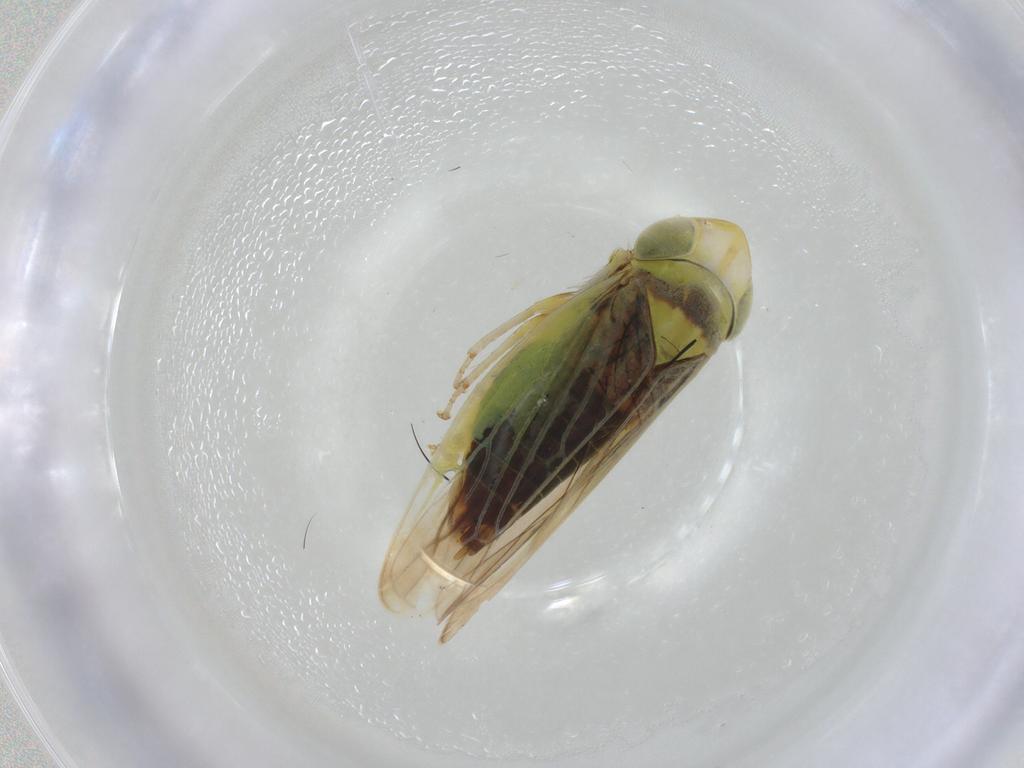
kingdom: Animalia
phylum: Arthropoda
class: Insecta
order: Hemiptera
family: Cicadellidae
